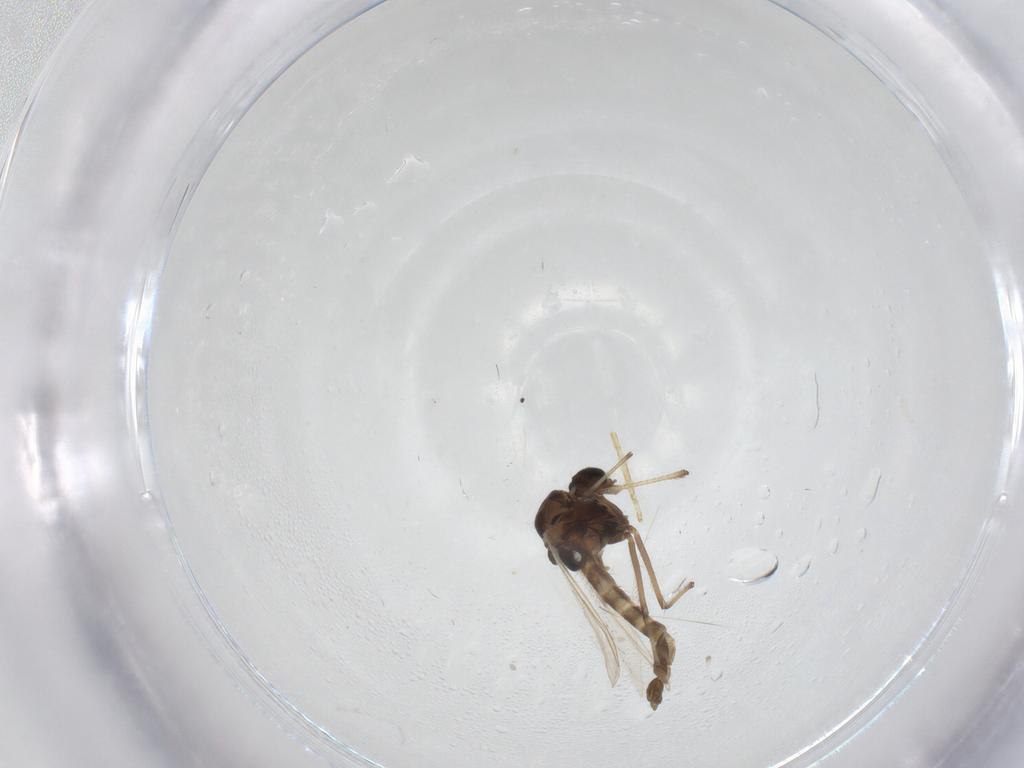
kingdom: Animalia
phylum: Arthropoda
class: Insecta
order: Diptera
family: Chironomidae
